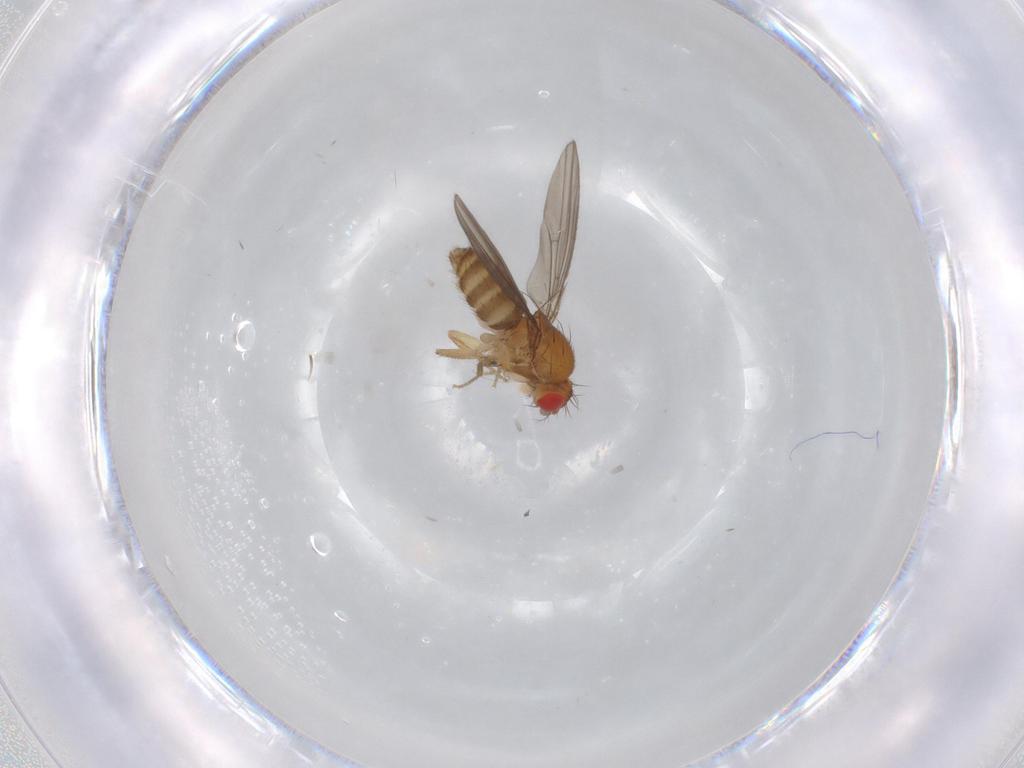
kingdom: Animalia
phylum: Arthropoda
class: Insecta
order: Diptera
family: Drosophilidae
